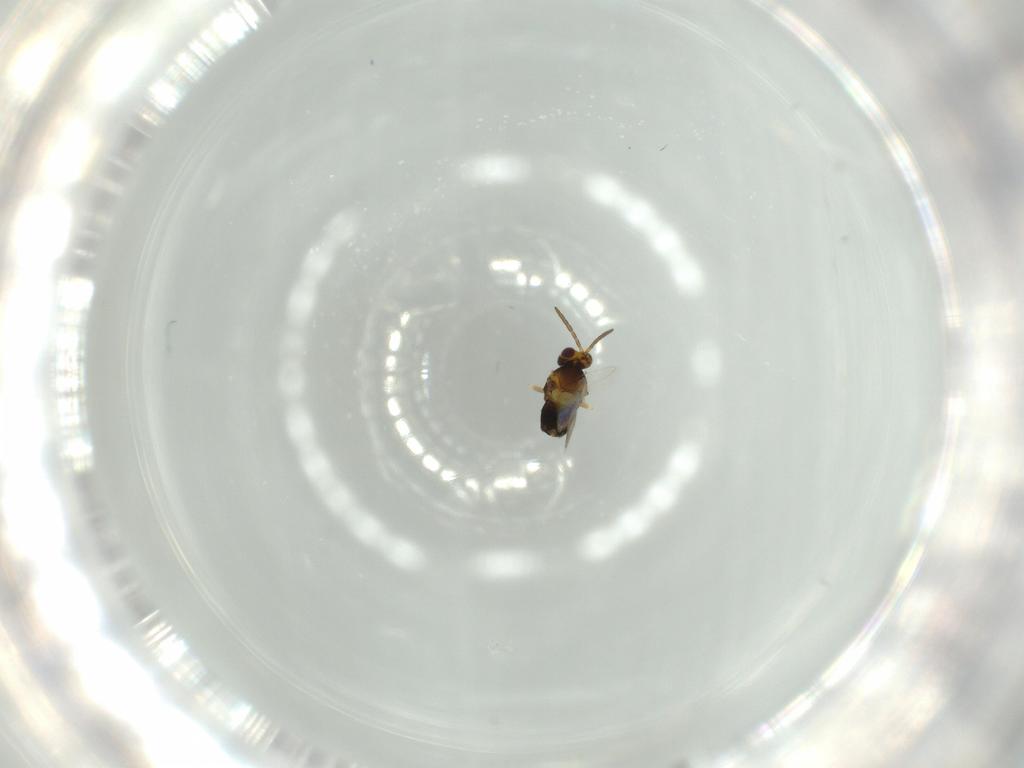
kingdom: Animalia
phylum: Arthropoda
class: Insecta
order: Hymenoptera
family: Aphelinidae
